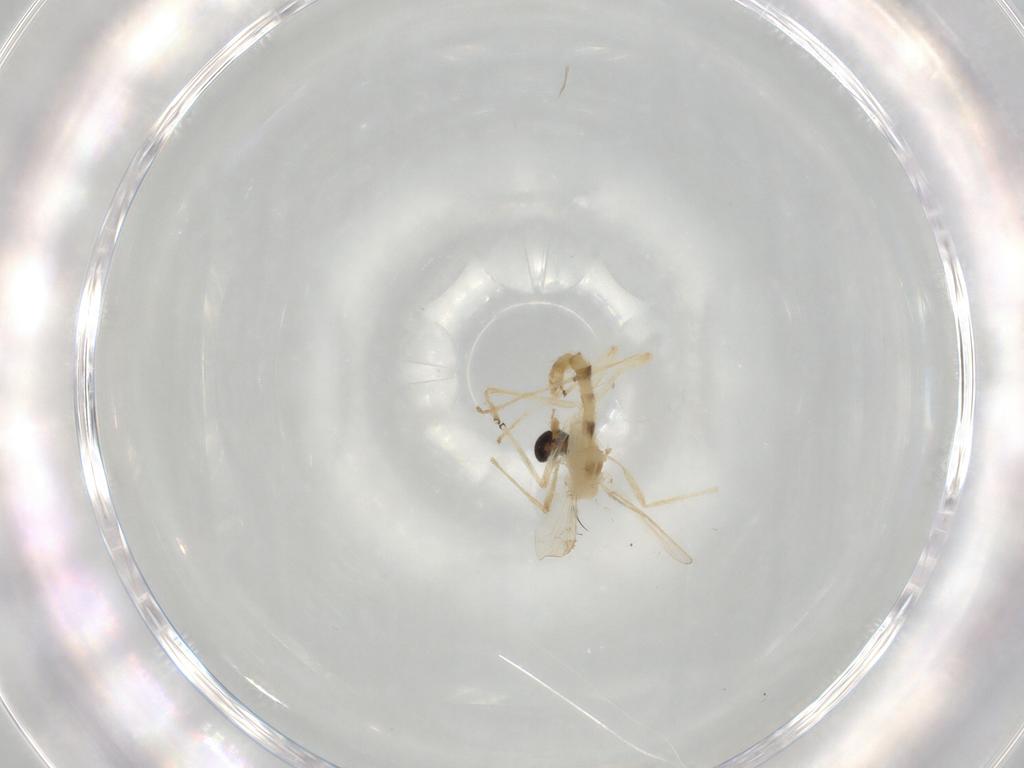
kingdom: Animalia
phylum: Arthropoda
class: Insecta
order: Diptera
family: Chironomidae
